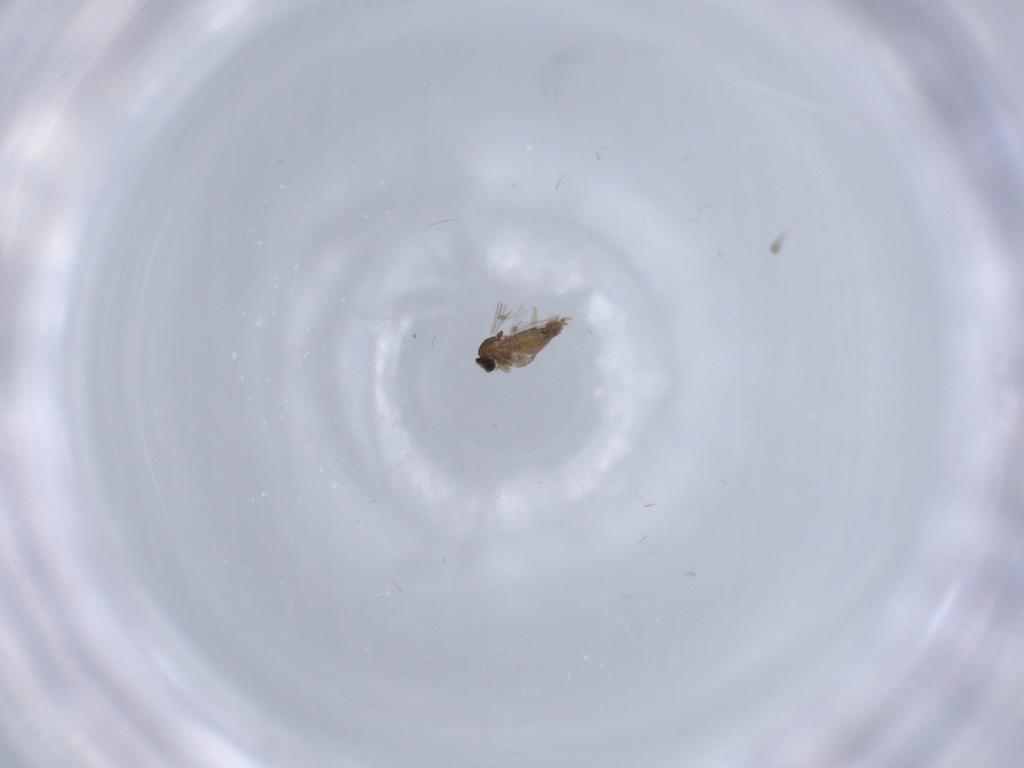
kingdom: Animalia
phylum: Arthropoda
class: Insecta
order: Diptera
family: Cecidomyiidae
